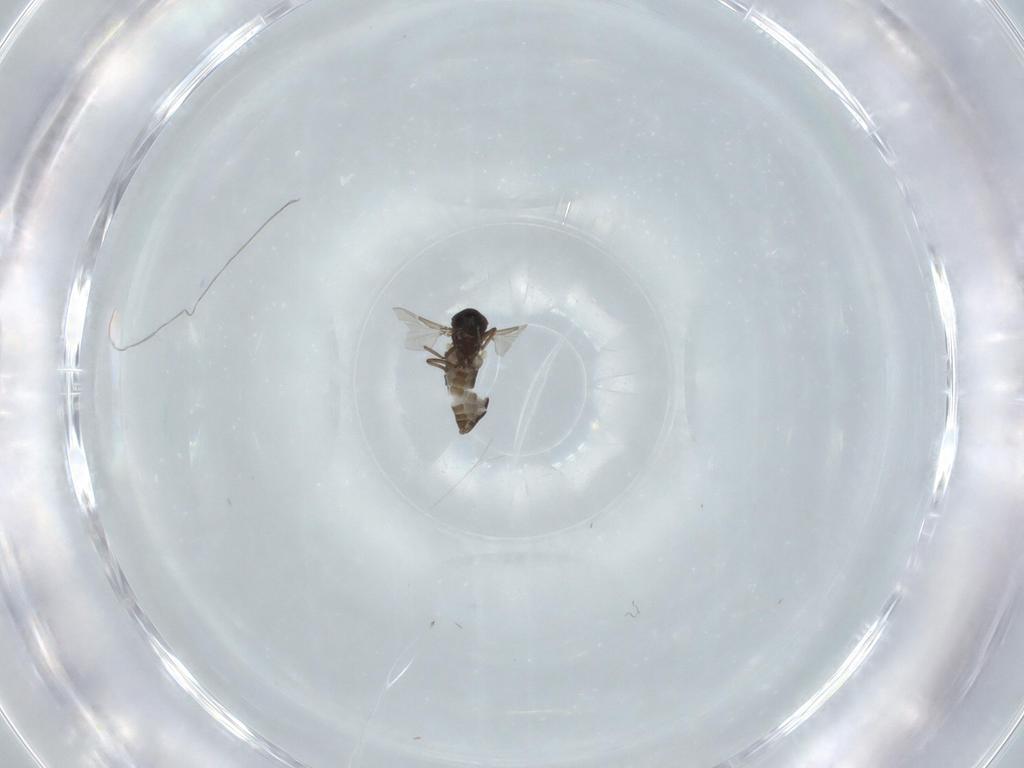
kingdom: Animalia
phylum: Arthropoda
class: Insecta
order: Diptera
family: Ceratopogonidae
